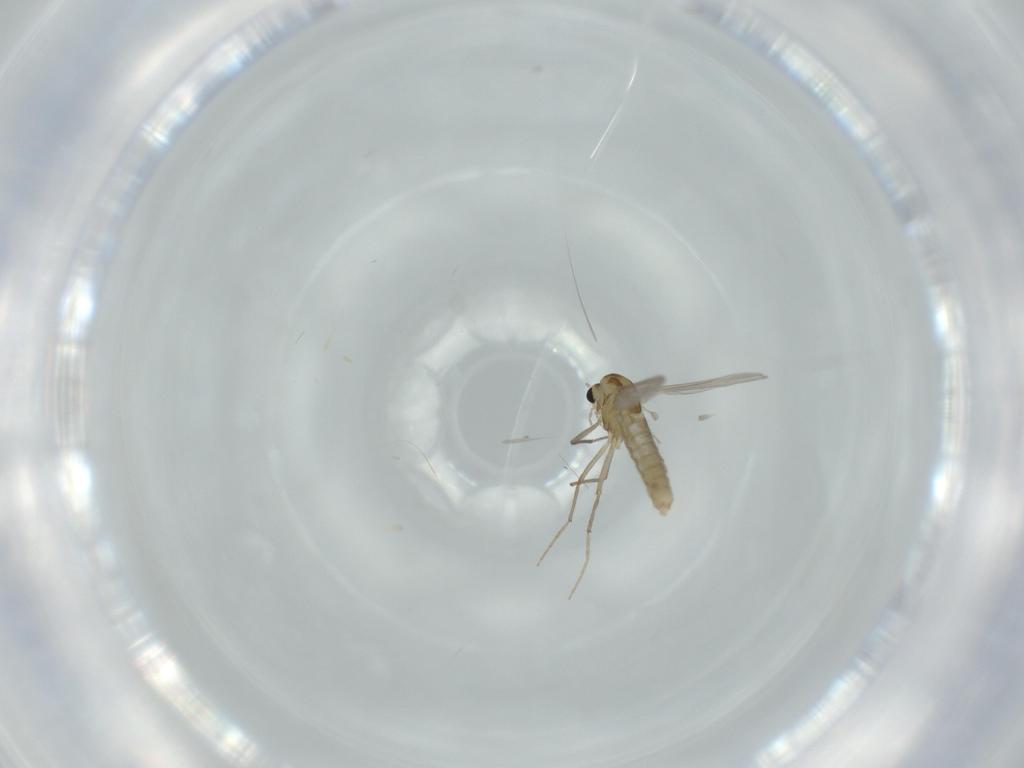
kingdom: Animalia
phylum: Arthropoda
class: Insecta
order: Diptera
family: Chironomidae
